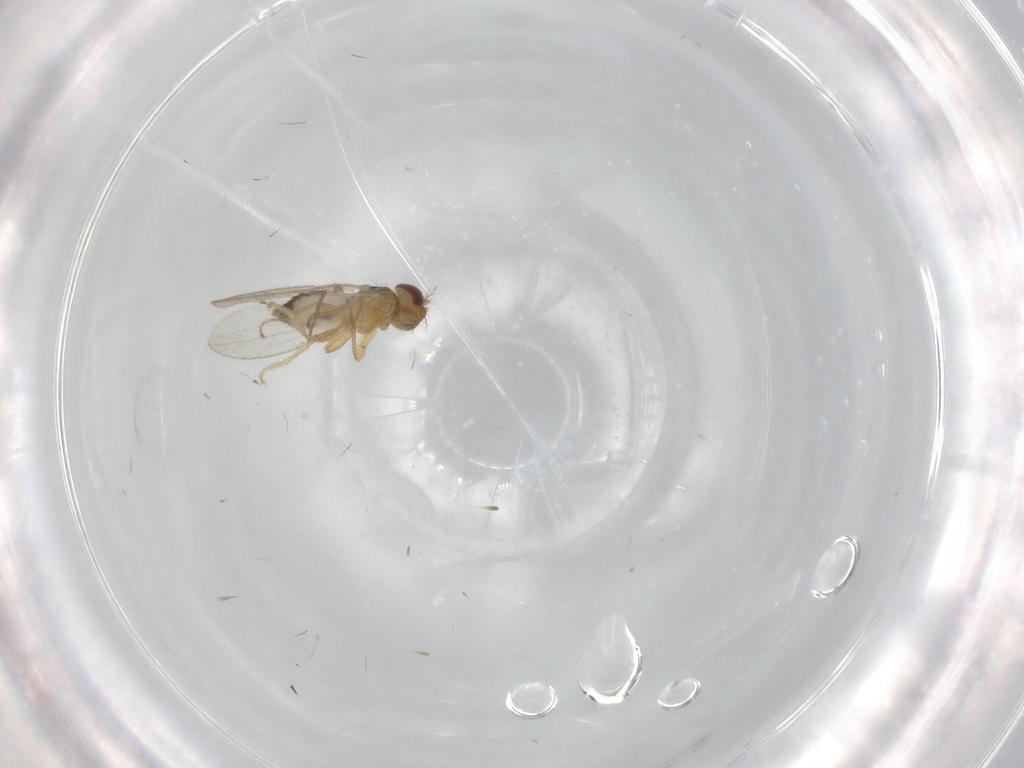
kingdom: Animalia
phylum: Arthropoda
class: Insecta
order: Diptera
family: Periscelididae
